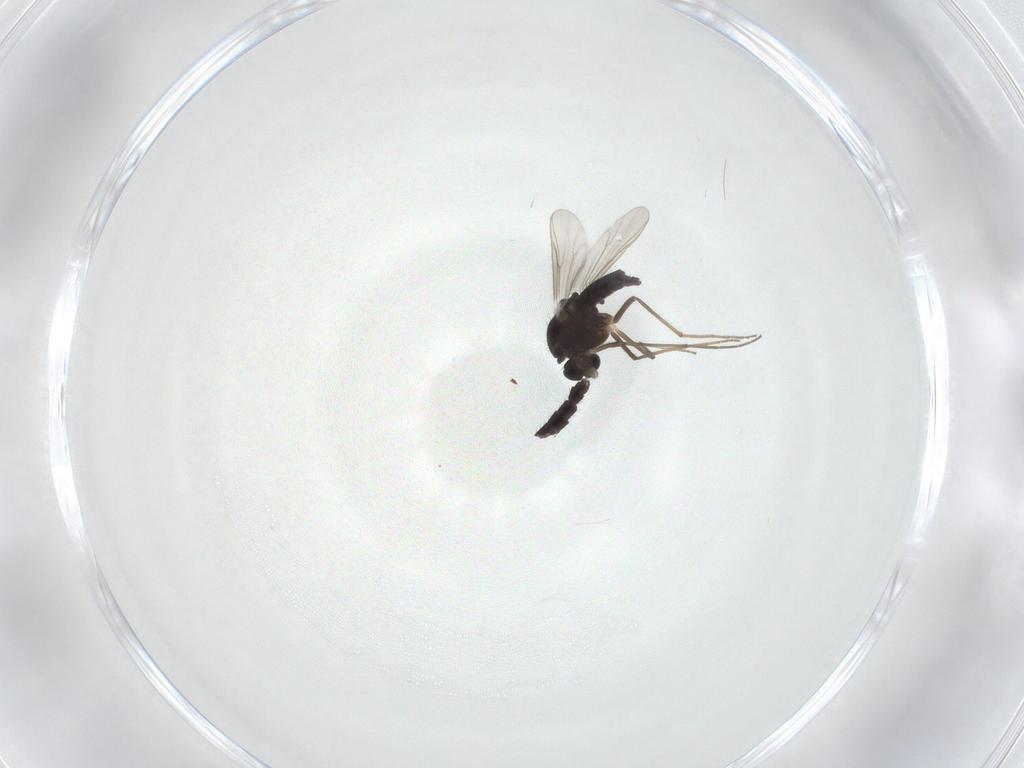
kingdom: Animalia
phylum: Arthropoda
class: Insecta
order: Diptera
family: Chironomidae
